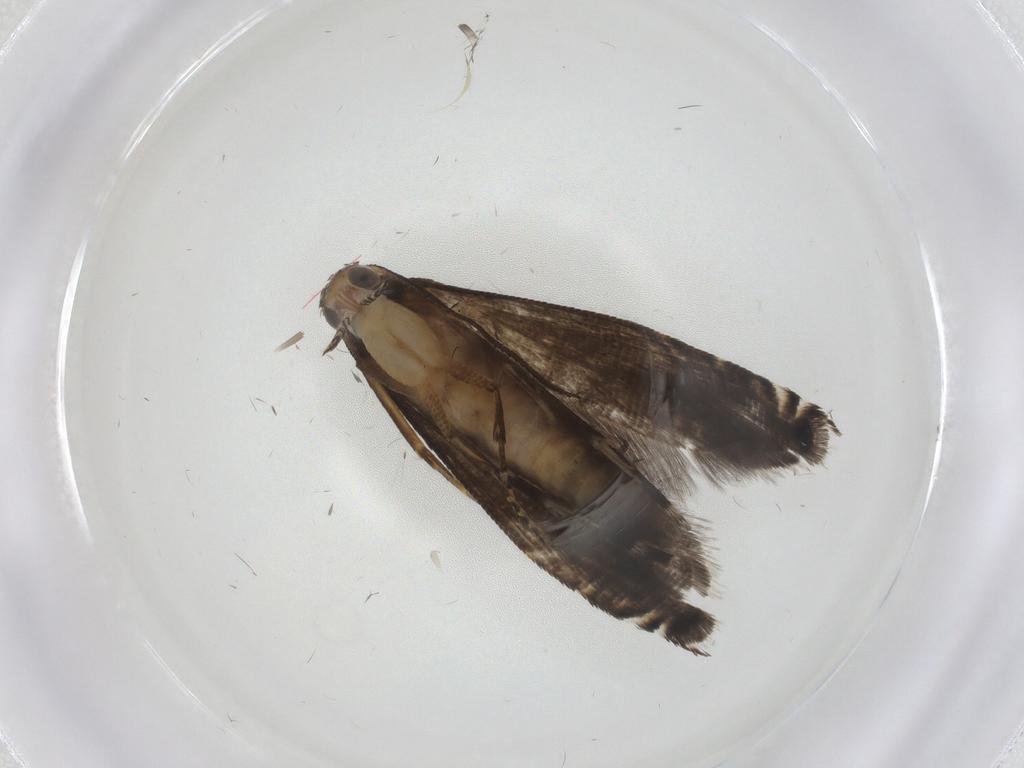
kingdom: Animalia
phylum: Arthropoda
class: Insecta
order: Lepidoptera
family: Glyphipterigidae
